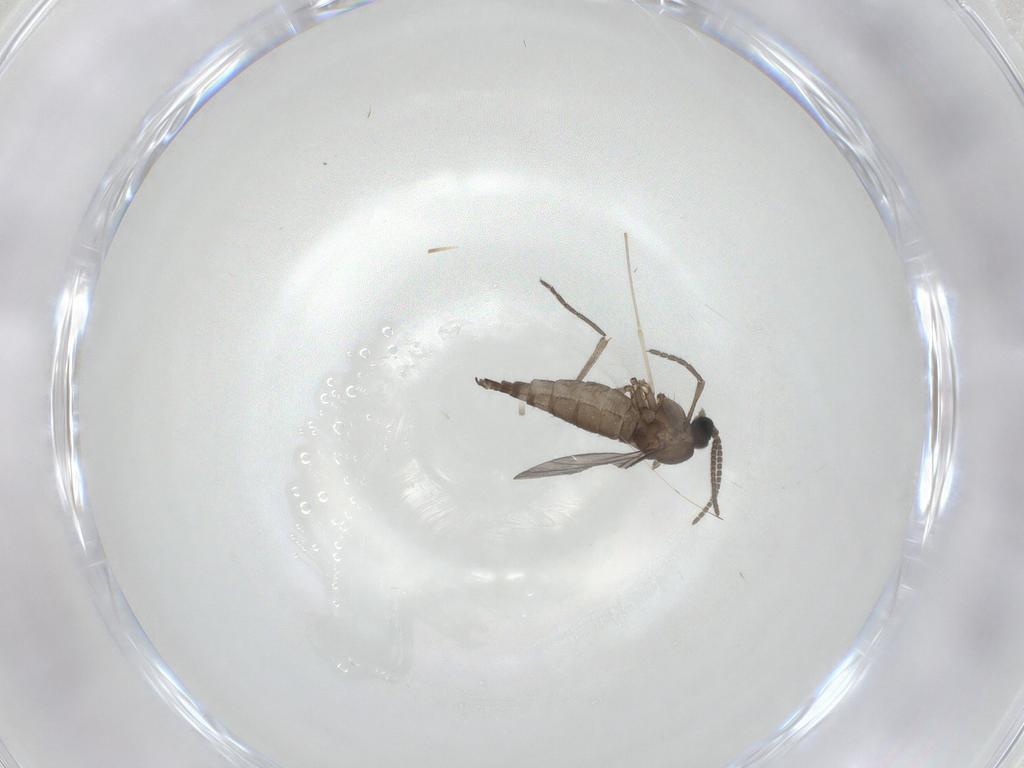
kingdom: Animalia
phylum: Arthropoda
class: Insecta
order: Diptera
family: Sciaridae
